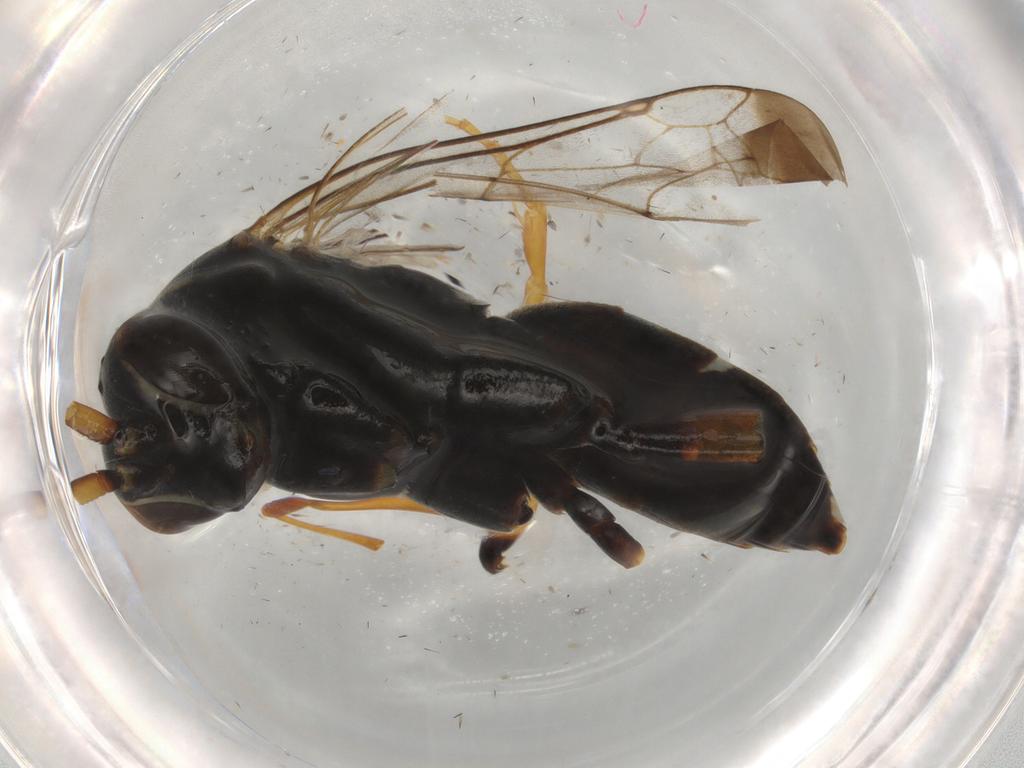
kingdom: Animalia
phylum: Arthropoda
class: Insecta
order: Hymenoptera
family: Pompilidae
